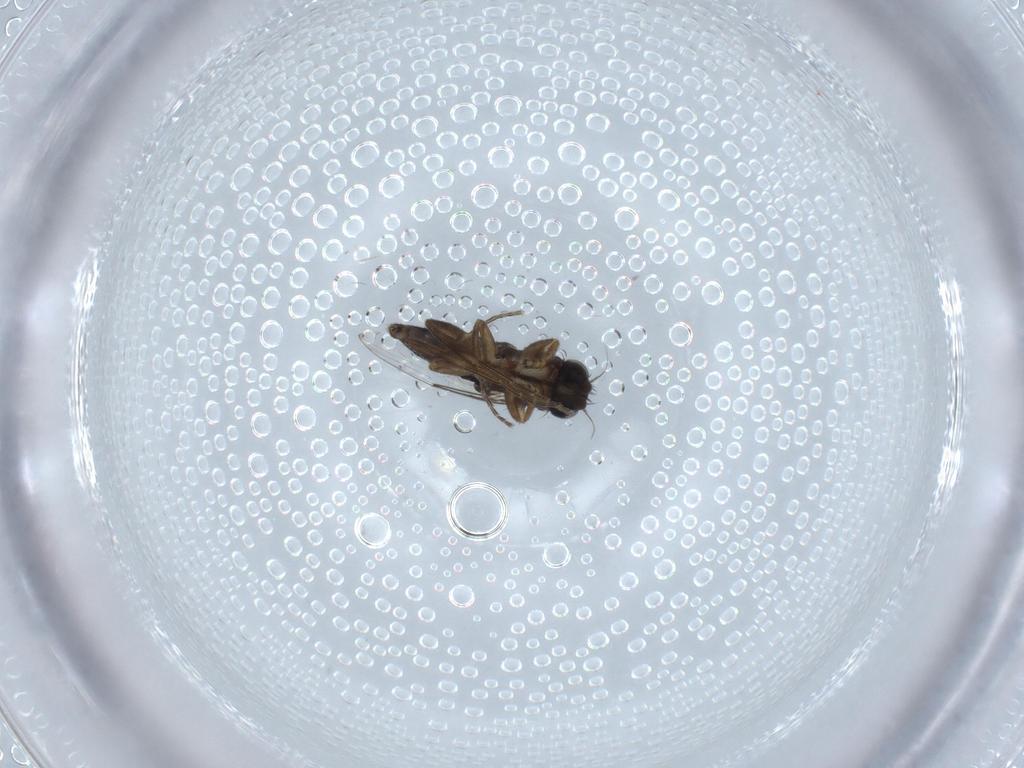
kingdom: Animalia
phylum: Arthropoda
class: Insecta
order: Diptera
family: Phoridae
